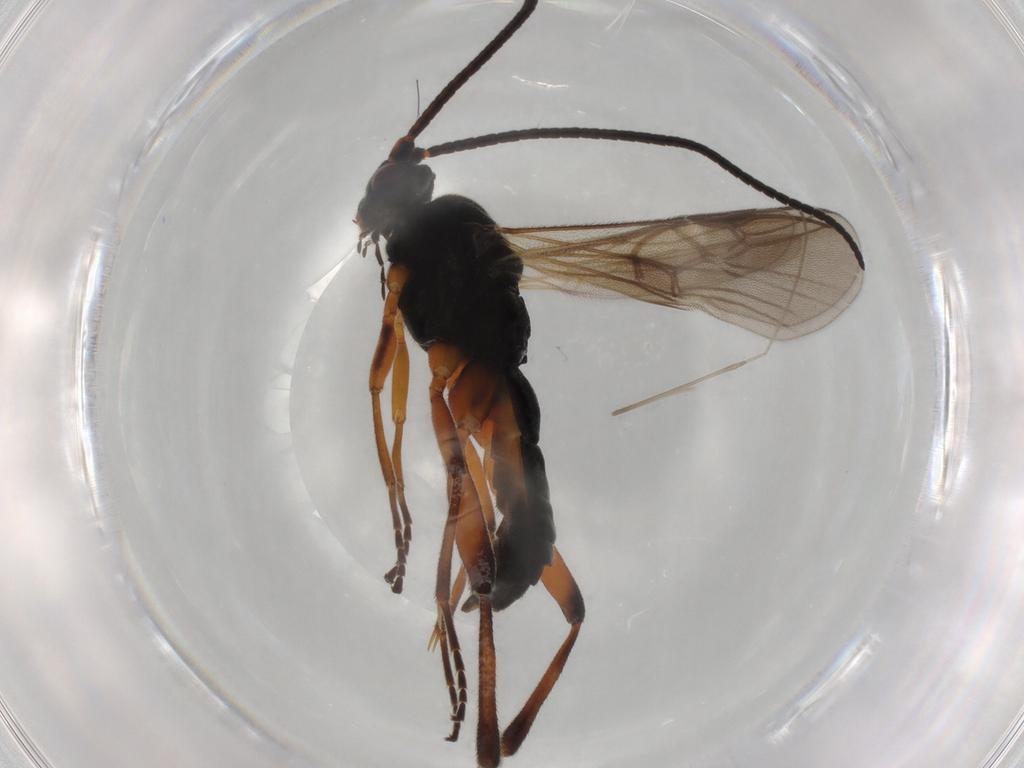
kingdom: Animalia
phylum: Arthropoda
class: Insecta
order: Hymenoptera
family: Braconidae
